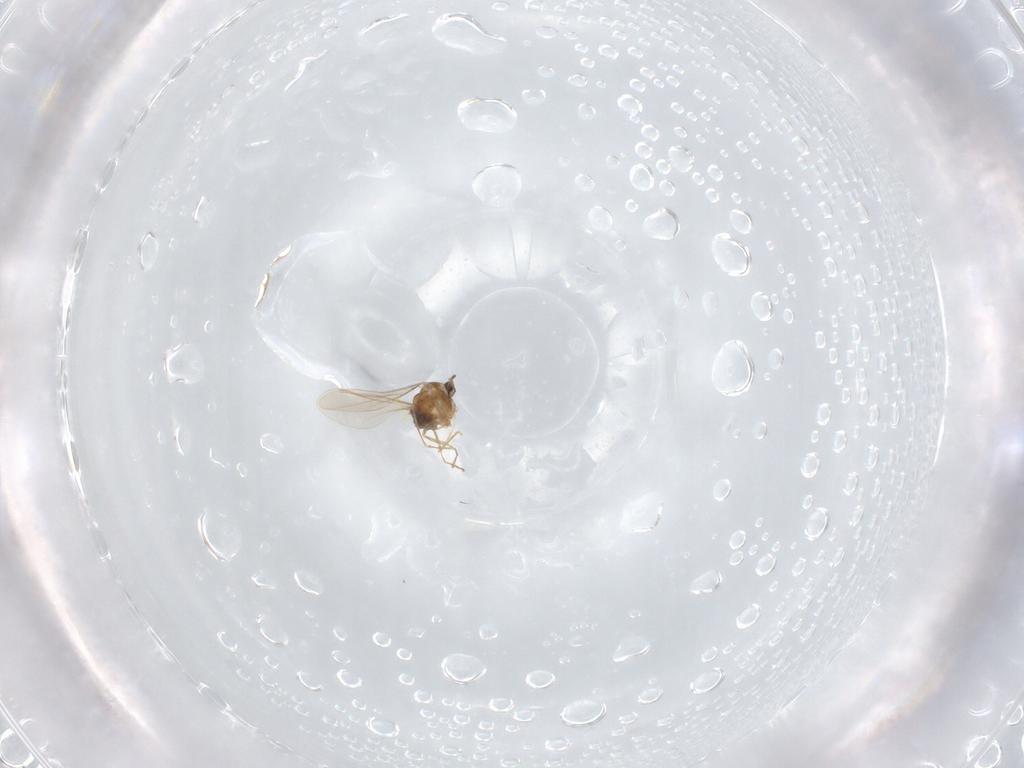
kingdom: Animalia
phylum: Arthropoda
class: Insecta
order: Diptera
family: Cecidomyiidae
